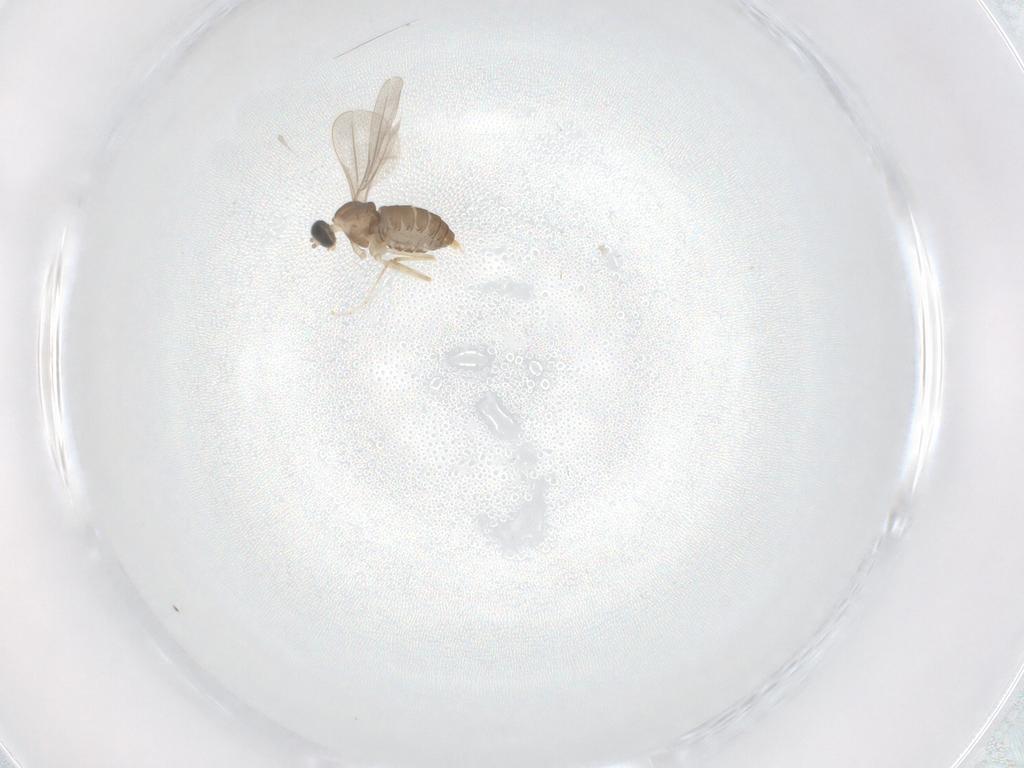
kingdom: Animalia
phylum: Arthropoda
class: Insecta
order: Diptera
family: Cecidomyiidae
